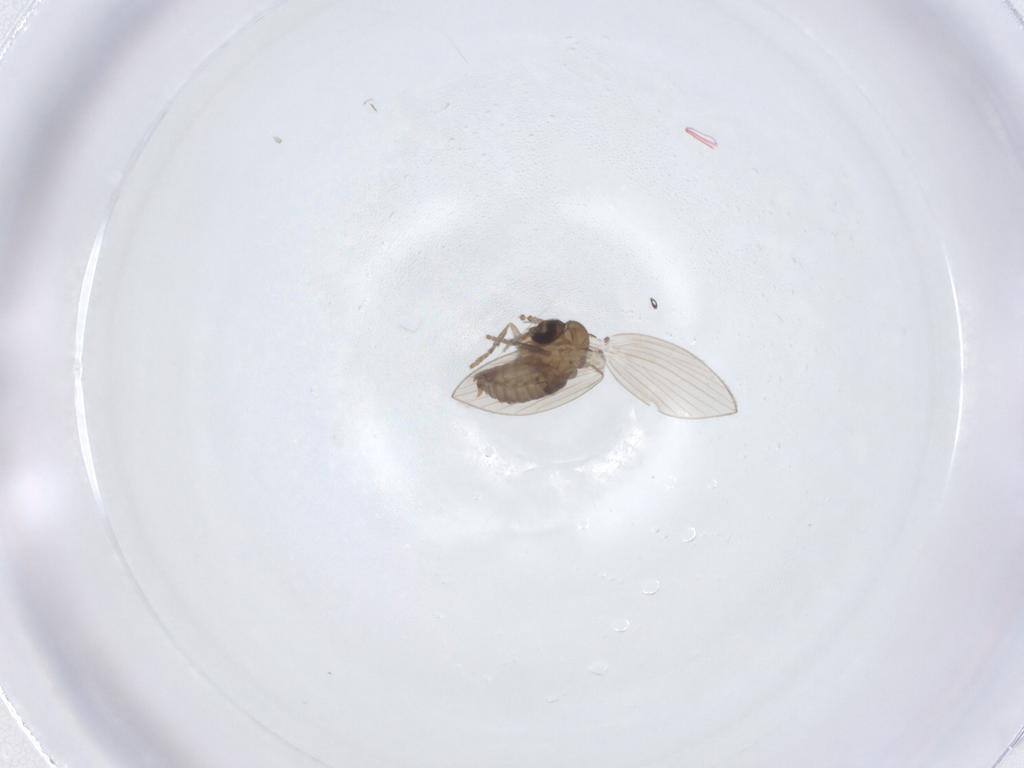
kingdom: Animalia
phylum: Arthropoda
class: Insecta
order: Diptera
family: Psychodidae
